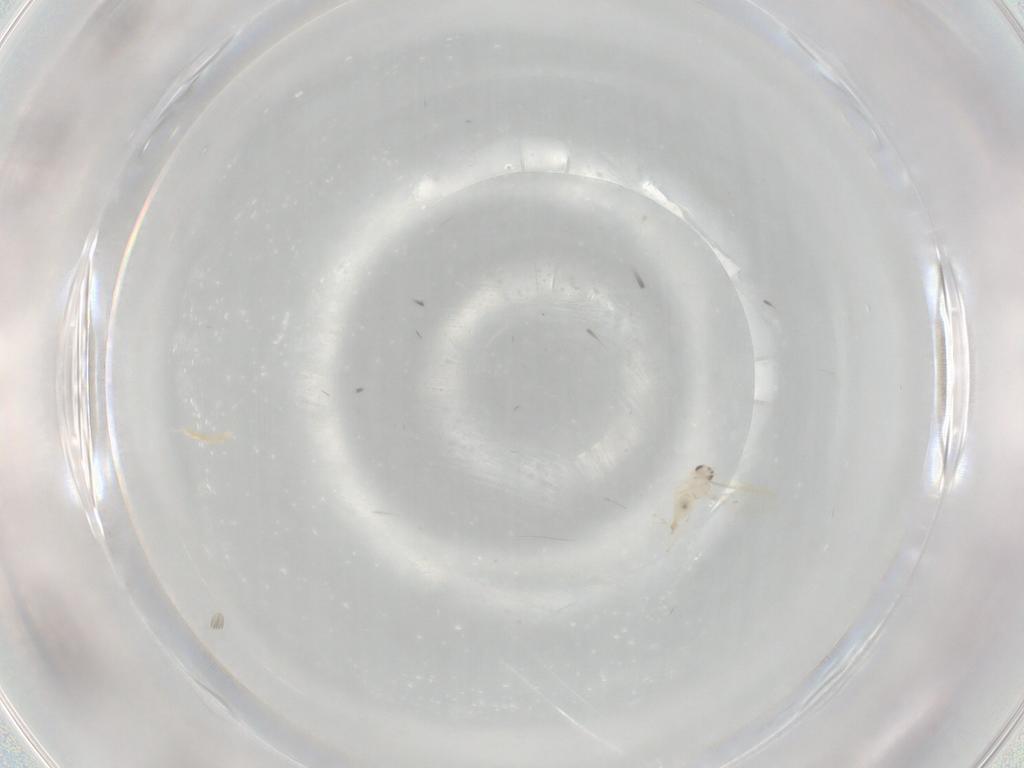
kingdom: Animalia
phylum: Arthropoda
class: Insecta
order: Diptera
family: Cecidomyiidae
